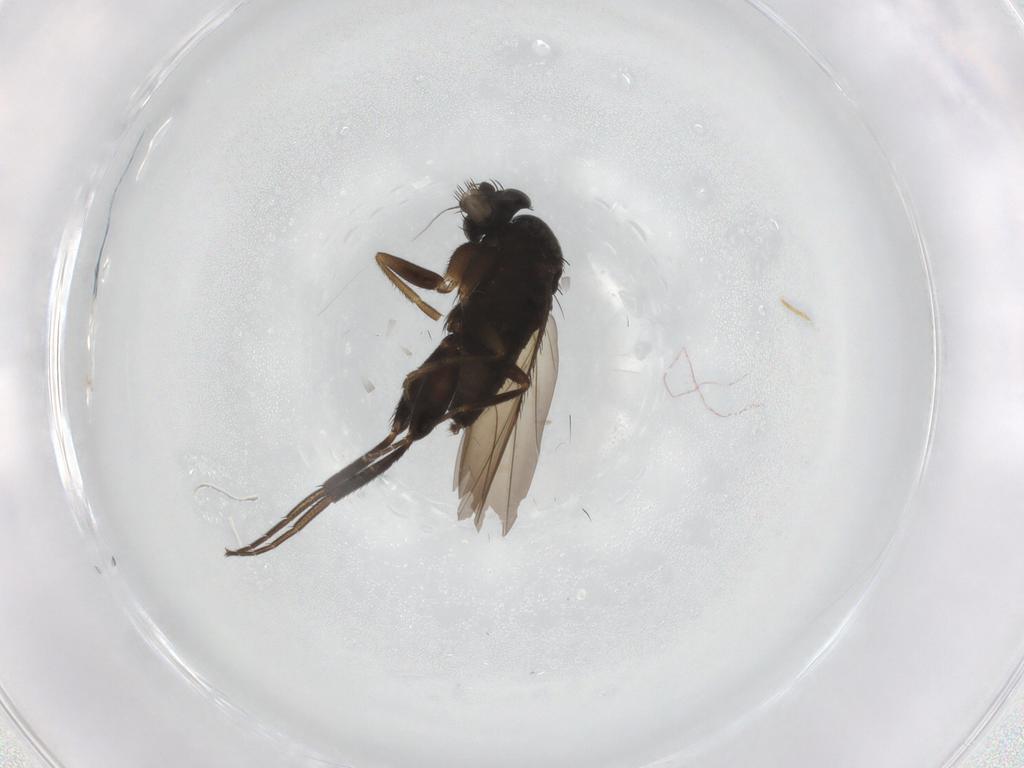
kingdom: Animalia
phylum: Arthropoda
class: Insecta
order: Diptera
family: Phoridae
